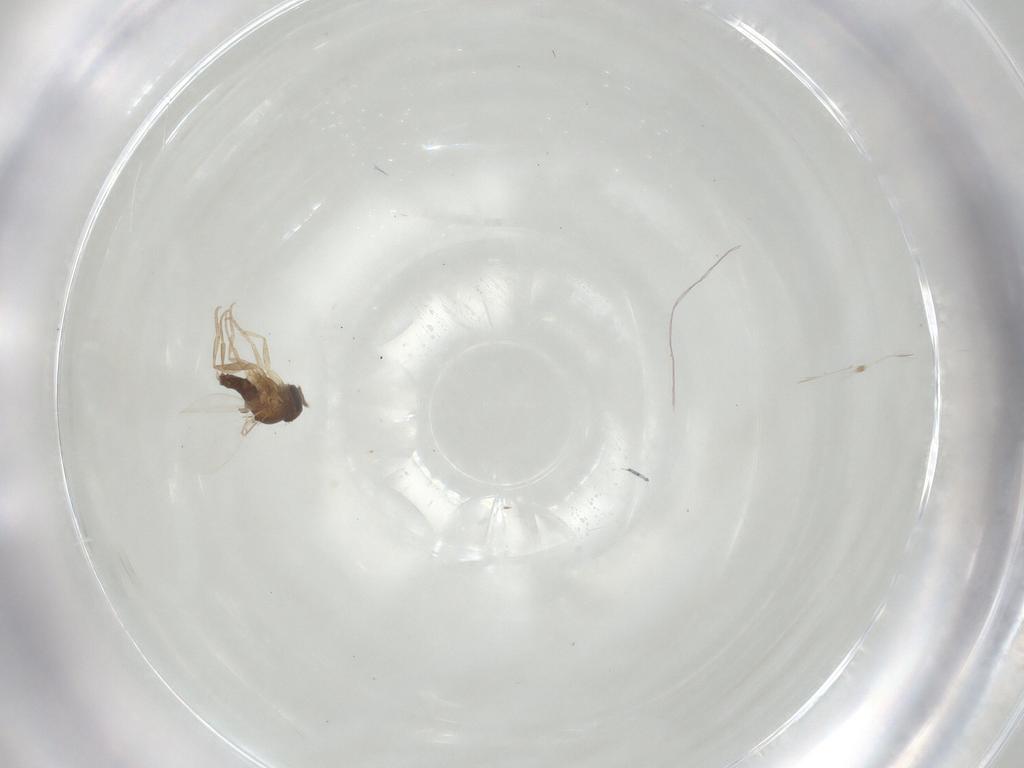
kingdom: Animalia
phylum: Arthropoda
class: Insecta
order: Diptera
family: Phoridae
